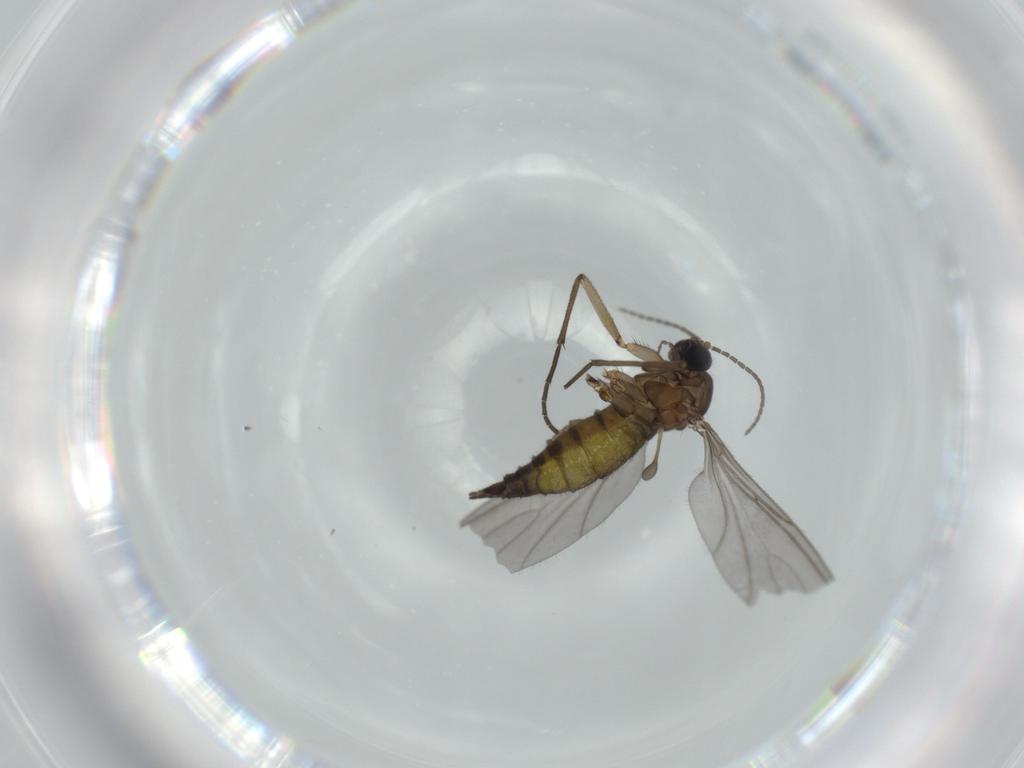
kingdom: Animalia
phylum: Arthropoda
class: Insecta
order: Diptera
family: Sciaridae
